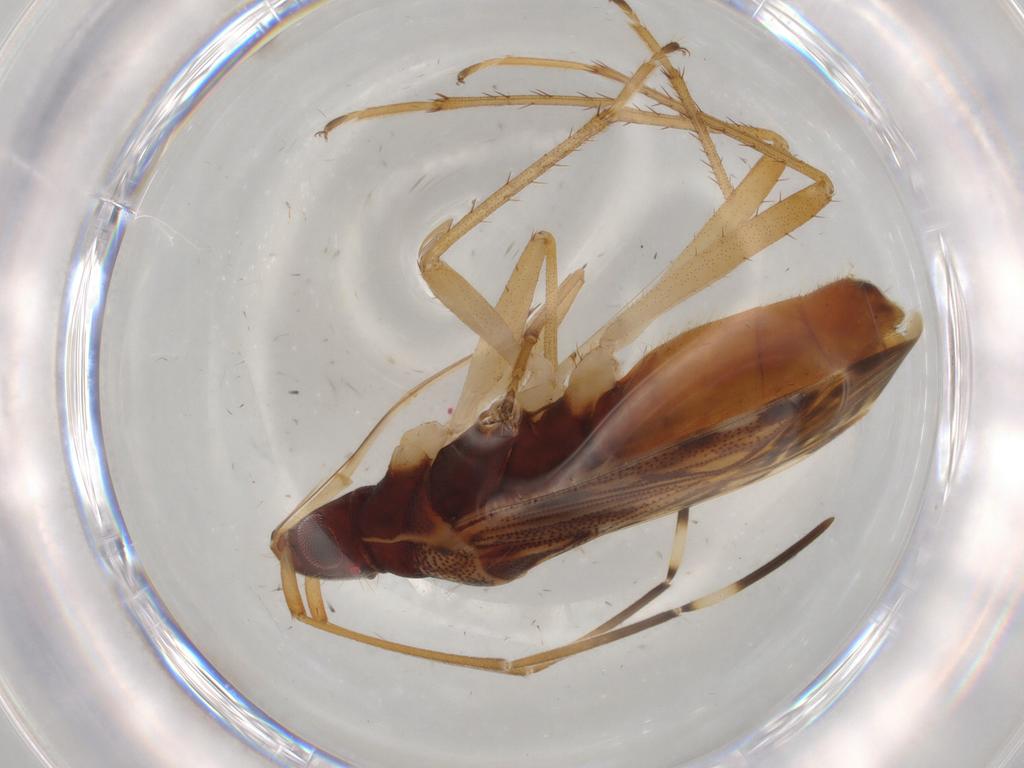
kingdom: Animalia
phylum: Arthropoda
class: Insecta
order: Hemiptera
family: Rhyparochromidae
